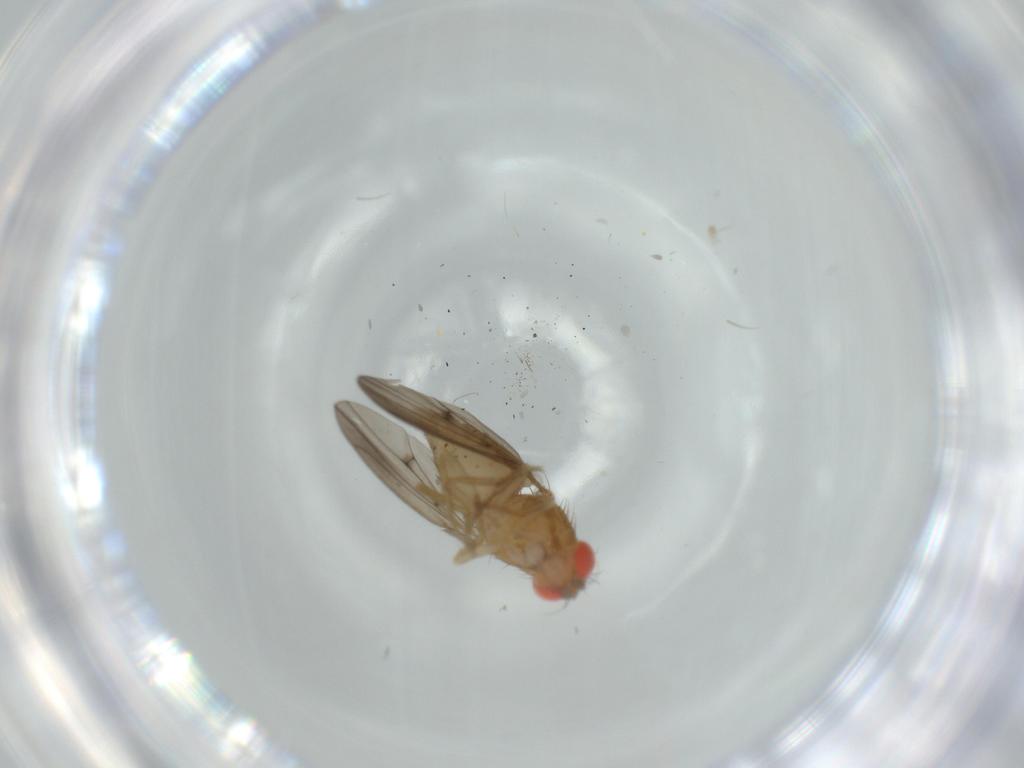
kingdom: Animalia
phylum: Arthropoda
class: Insecta
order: Diptera
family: Drosophilidae
